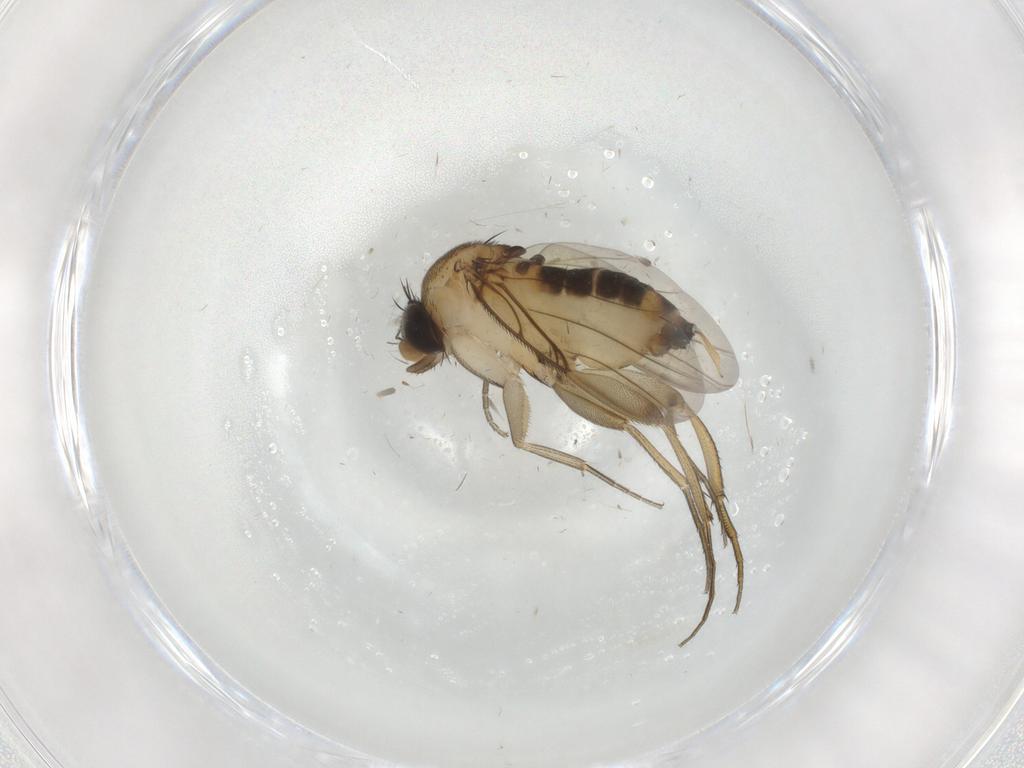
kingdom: Animalia
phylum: Arthropoda
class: Insecta
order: Diptera
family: Phoridae
